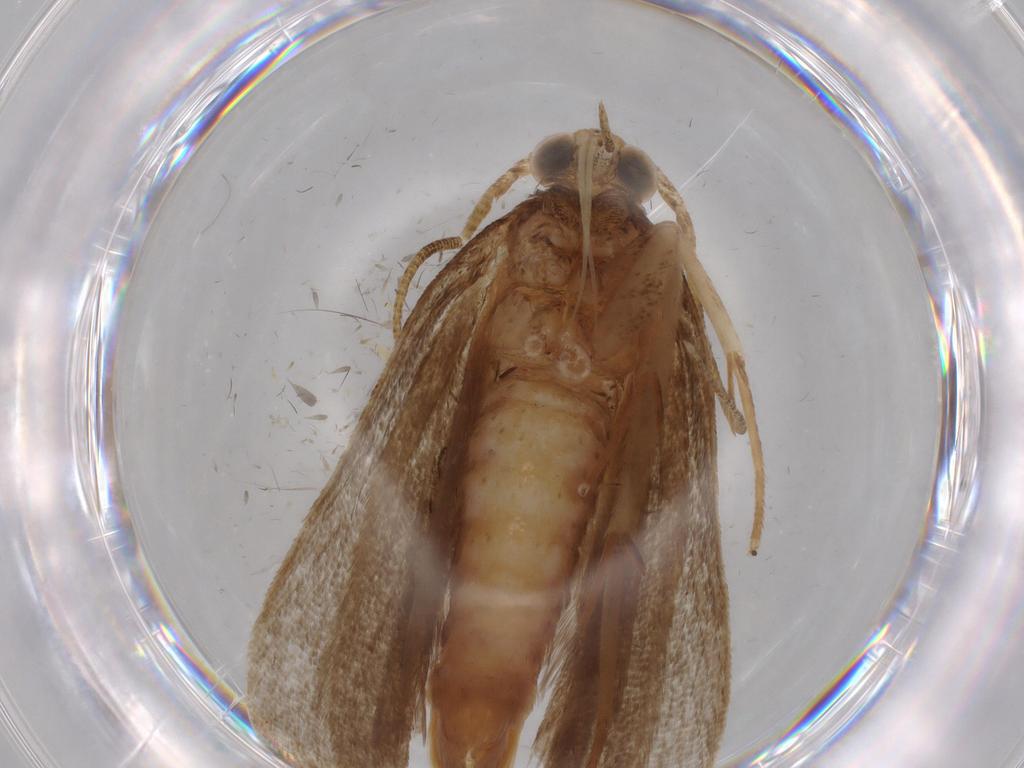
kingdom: Animalia
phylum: Arthropoda
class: Insecta
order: Lepidoptera
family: Autostichidae
